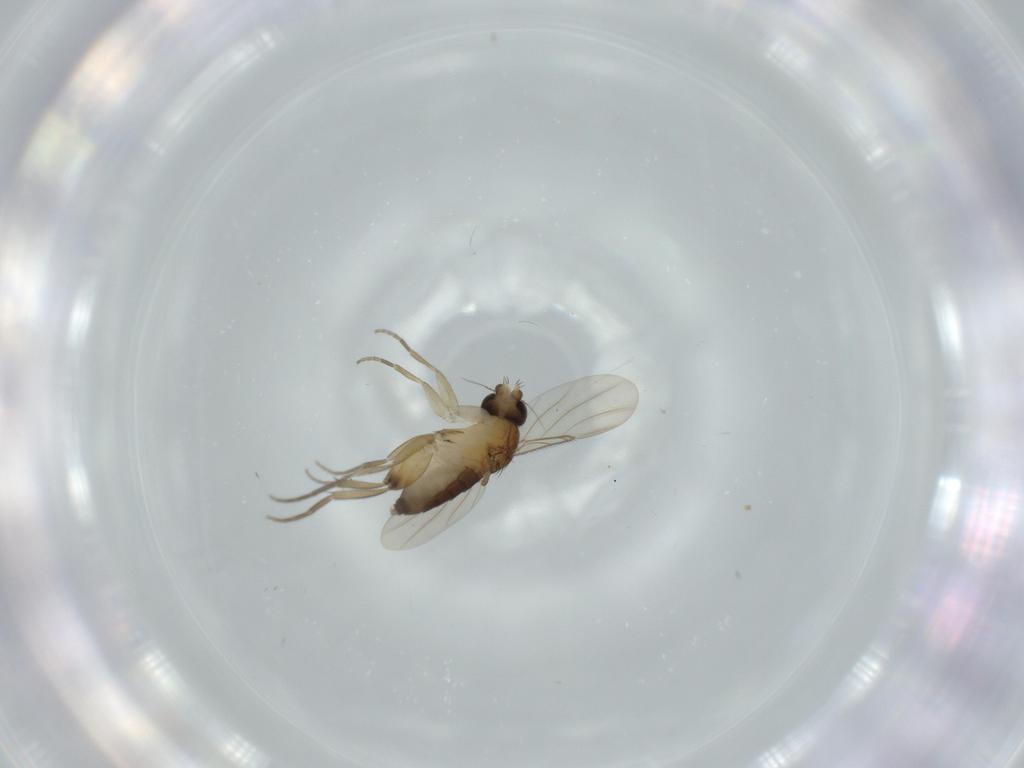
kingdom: Animalia
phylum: Arthropoda
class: Insecta
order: Diptera
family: Phoridae
